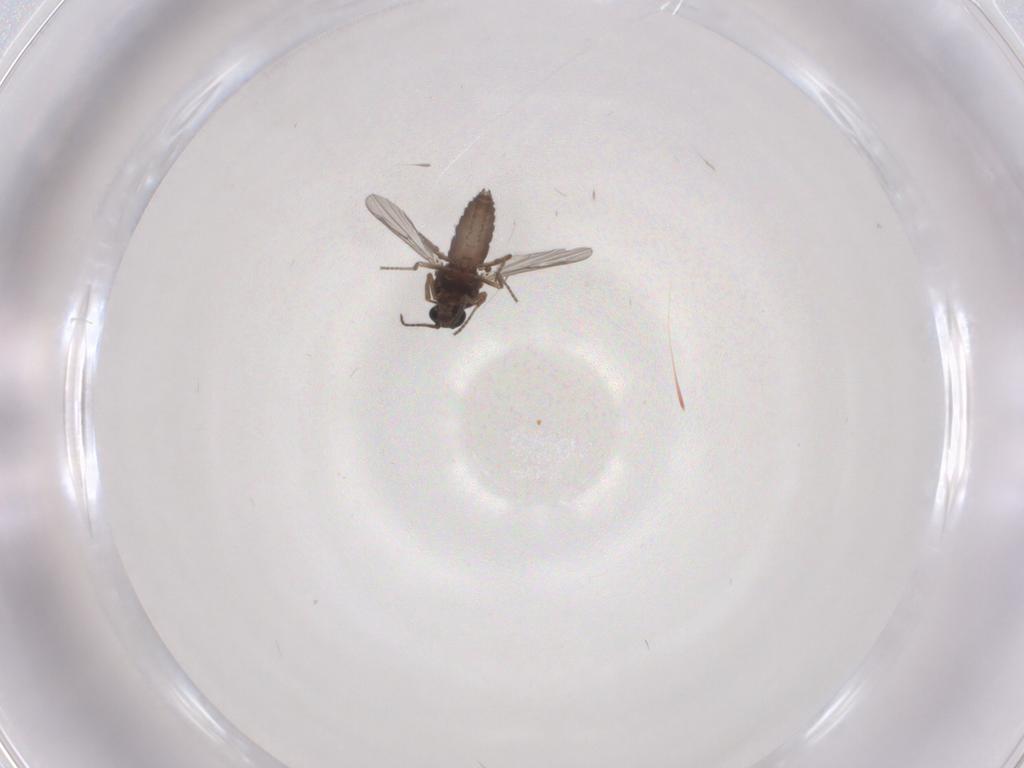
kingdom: Animalia
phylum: Arthropoda
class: Insecta
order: Diptera
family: Ceratopogonidae
